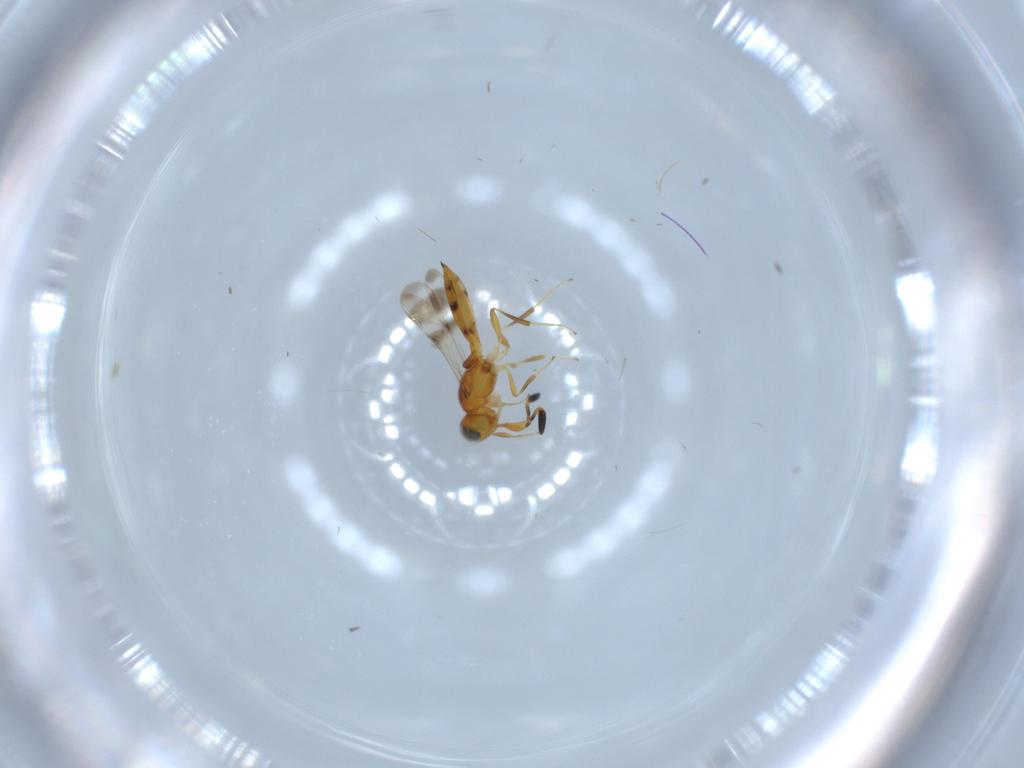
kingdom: Animalia
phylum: Arthropoda
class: Insecta
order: Hymenoptera
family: Scelionidae
